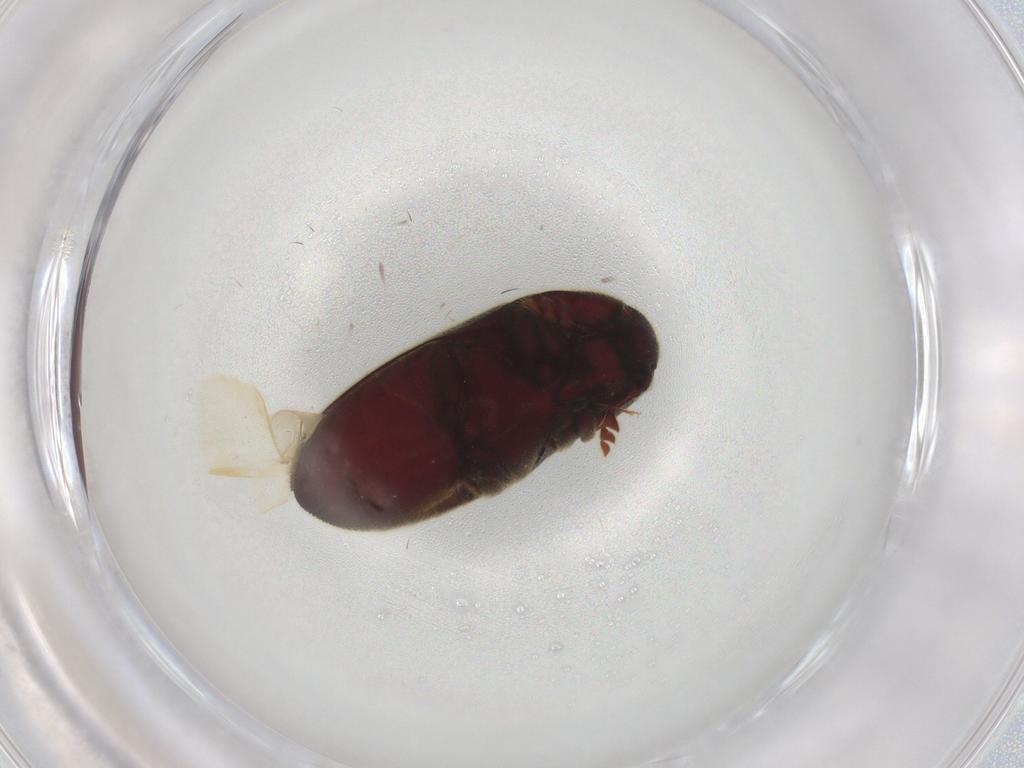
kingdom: Animalia
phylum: Arthropoda
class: Insecta
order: Coleoptera
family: Throscidae
